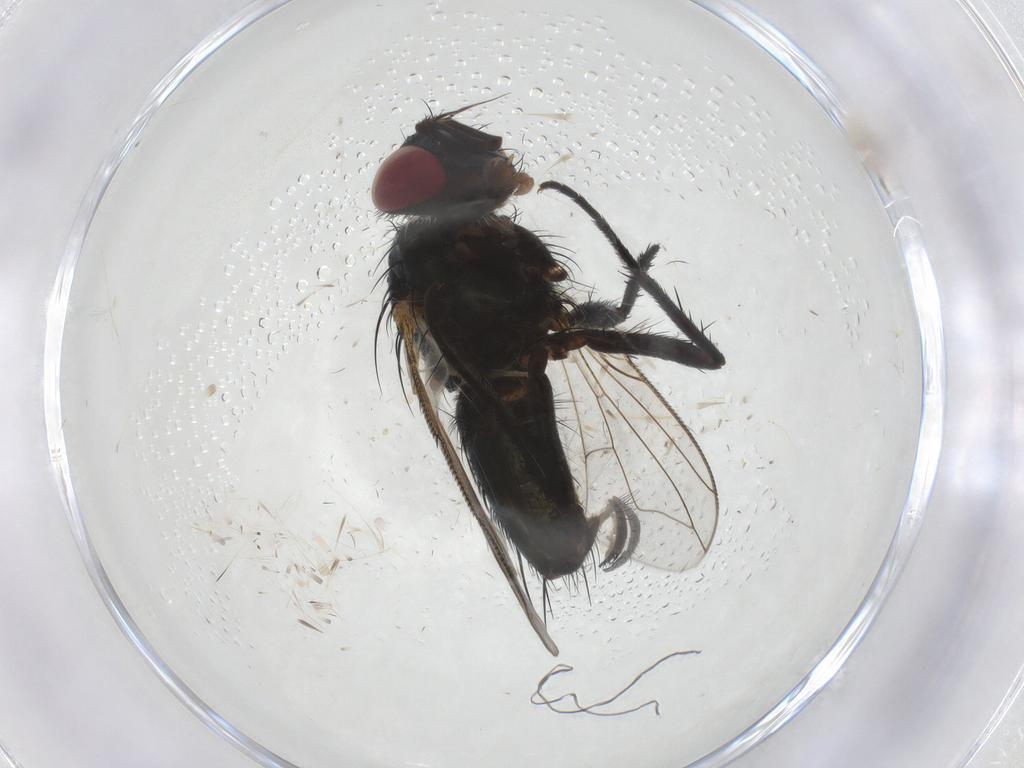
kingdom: Animalia
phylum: Arthropoda
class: Insecta
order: Diptera
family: Tachinidae
